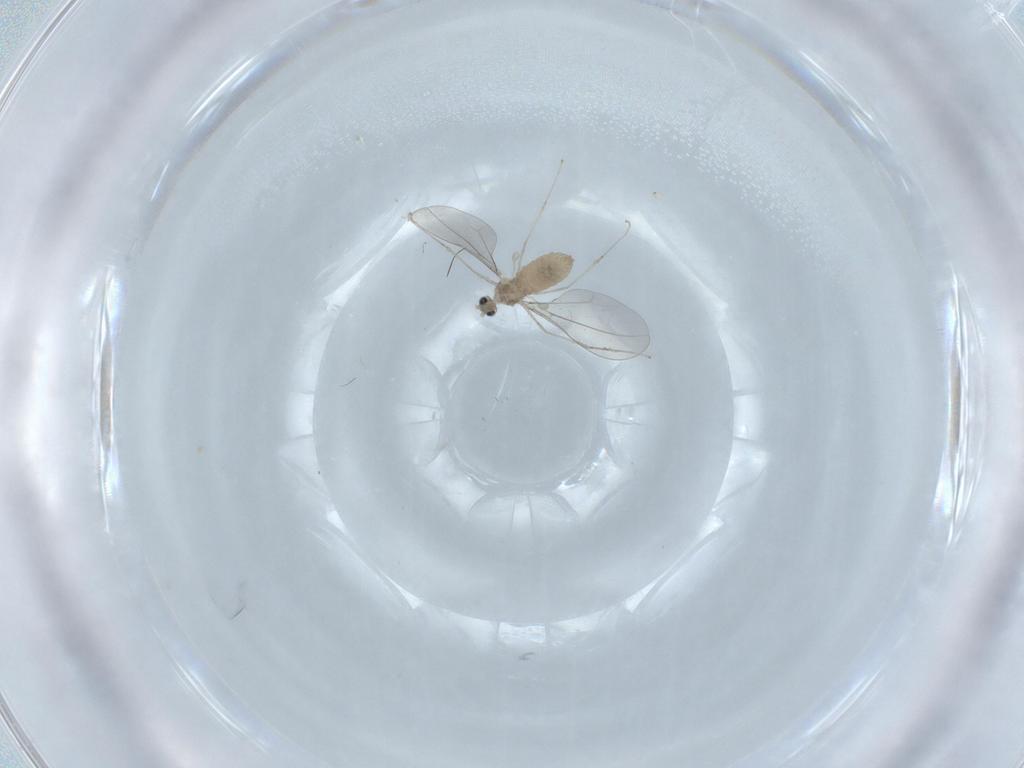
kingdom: Animalia
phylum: Arthropoda
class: Insecta
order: Diptera
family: Cecidomyiidae
